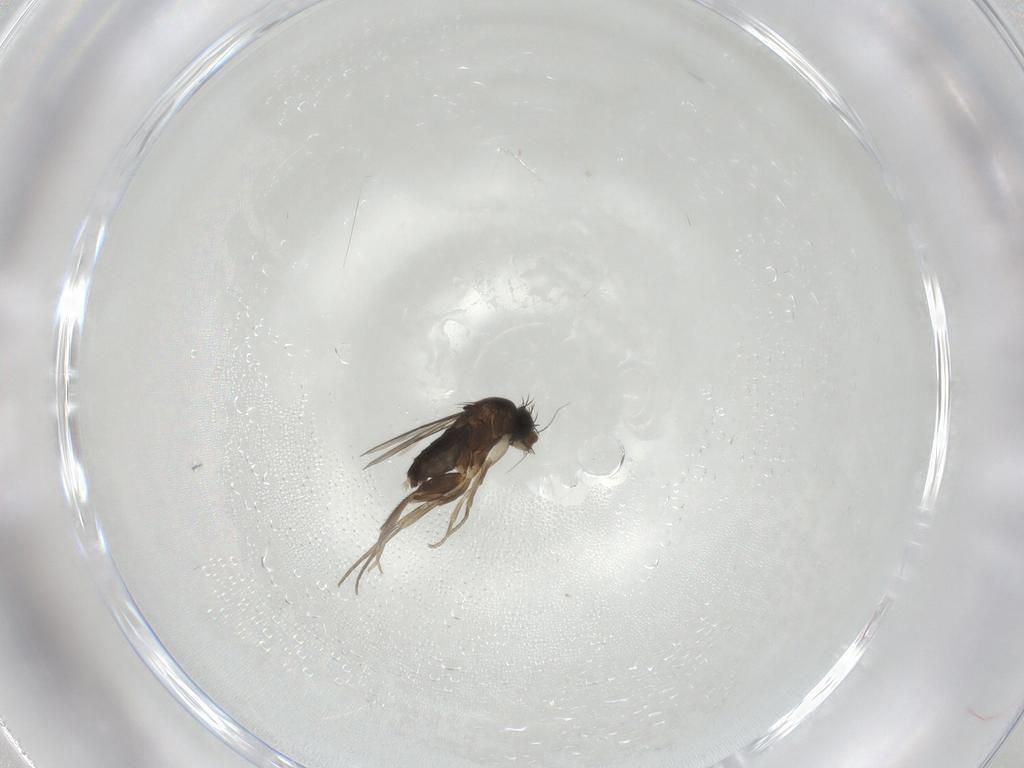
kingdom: Animalia
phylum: Arthropoda
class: Insecta
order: Diptera
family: Phoridae
